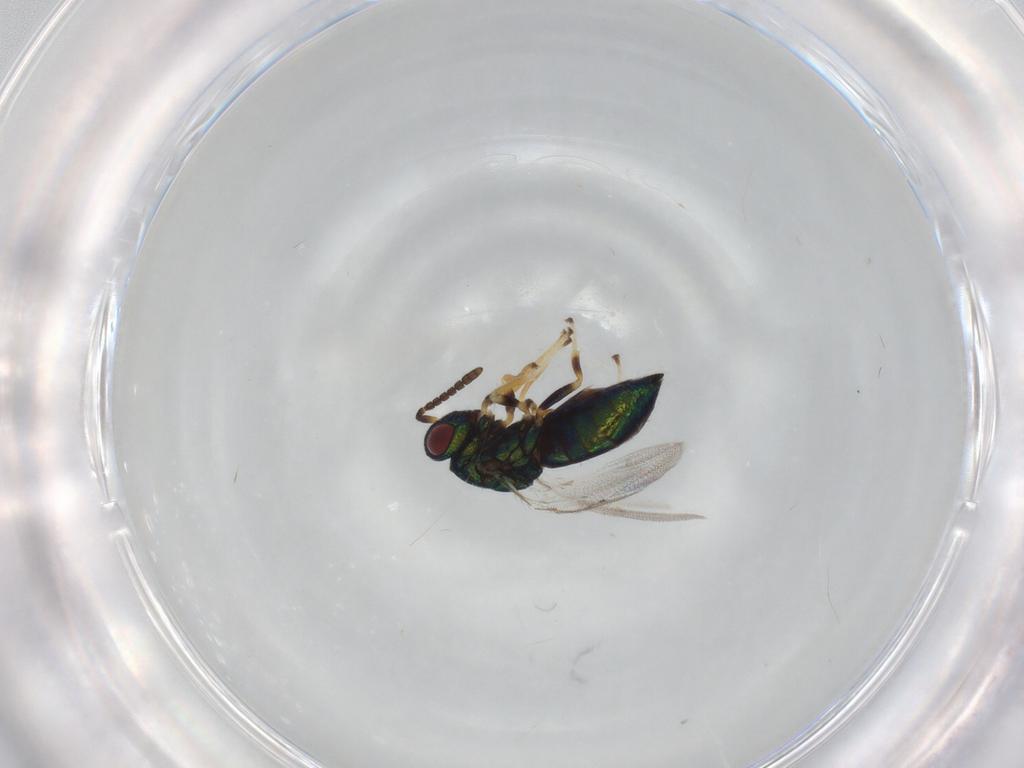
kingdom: Animalia
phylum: Arthropoda
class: Insecta
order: Hymenoptera
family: Pteromalidae
